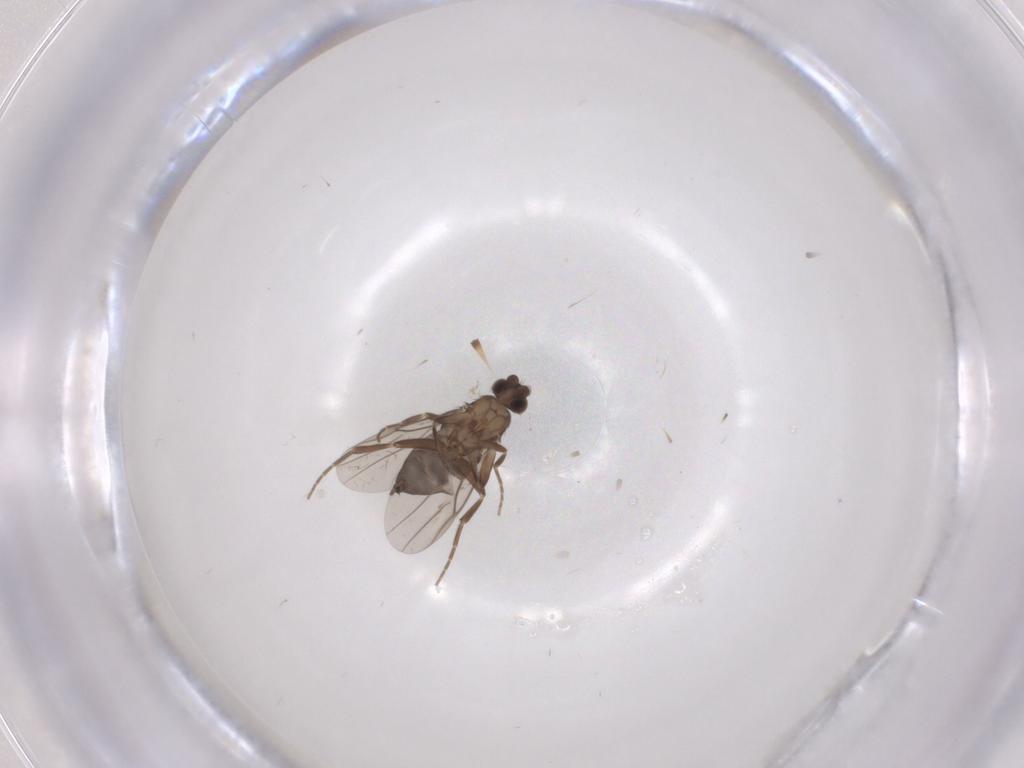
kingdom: Animalia
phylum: Arthropoda
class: Insecta
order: Diptera
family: Phoridae
